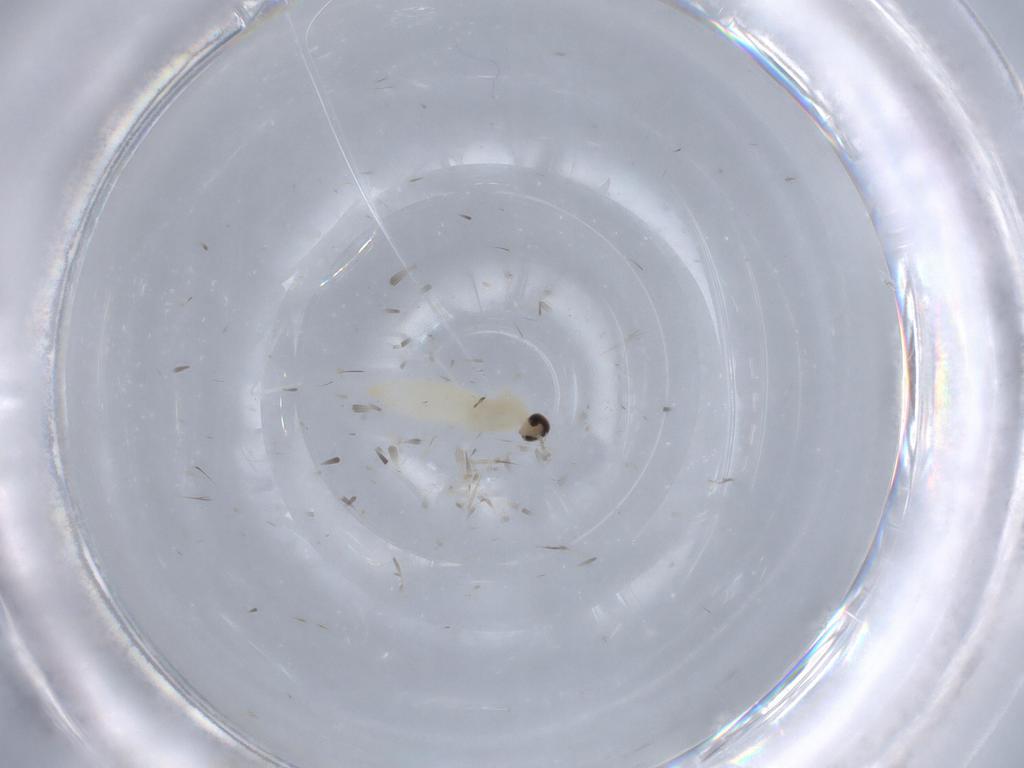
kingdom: Animalia
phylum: Arthropoda
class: Insecta
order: Diptera
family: Cecidomyiidae
